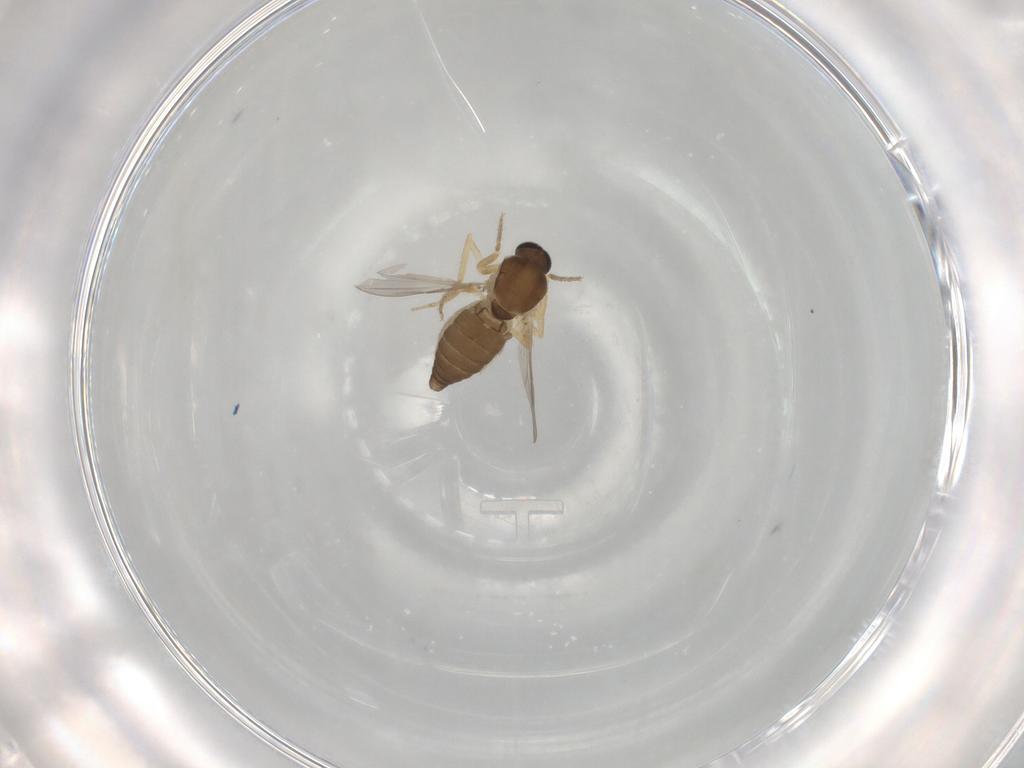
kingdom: Animalia
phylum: Arthropoda
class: Insecta
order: Diptera
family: Ceratopogonidae
